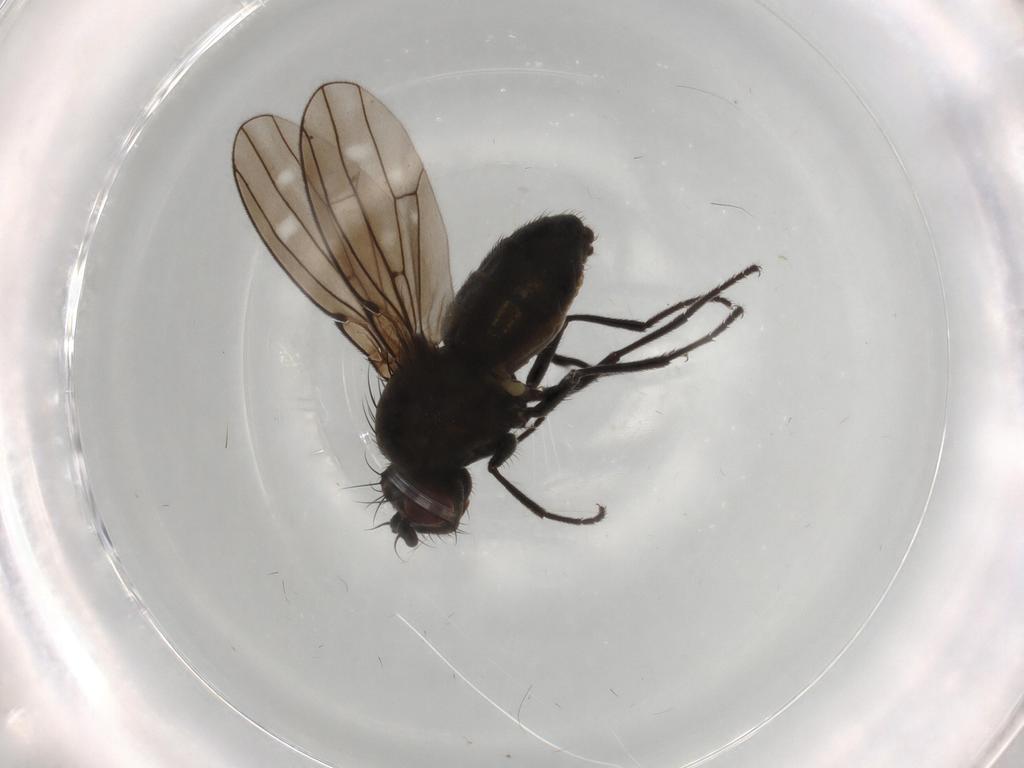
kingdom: Animalia
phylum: Arthropoda
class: Insecta
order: Diptera
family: Ephydridae
